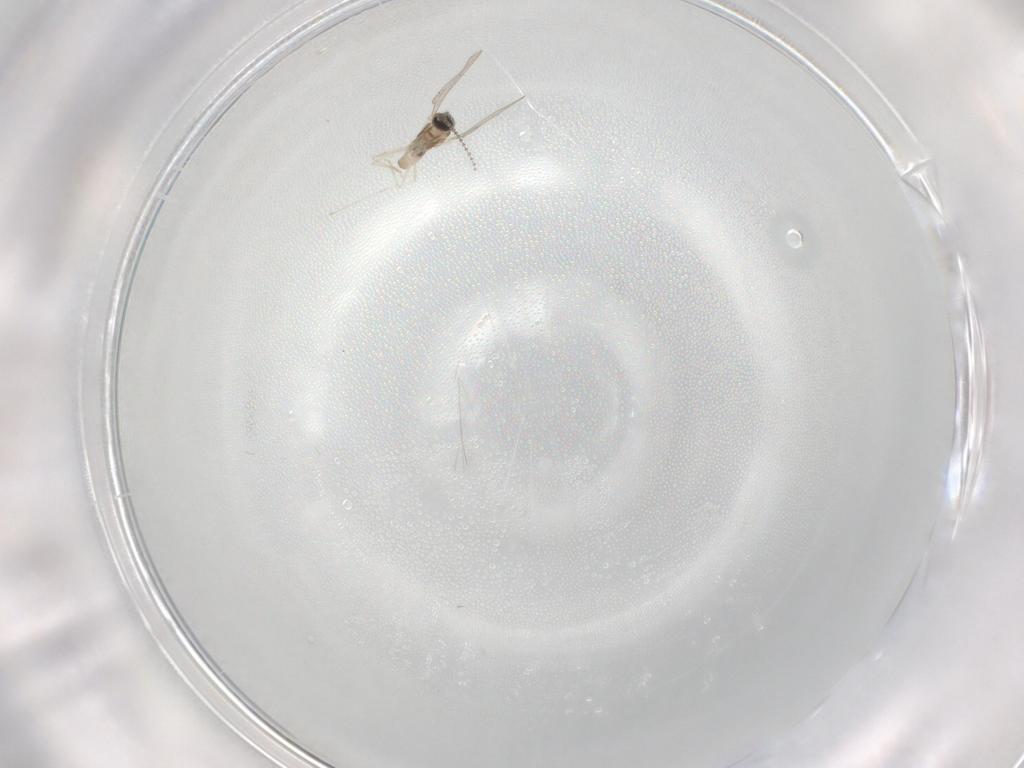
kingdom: Animalia
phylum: Arthropoda
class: Insecta
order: Diptera
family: Cecidomyiidae
